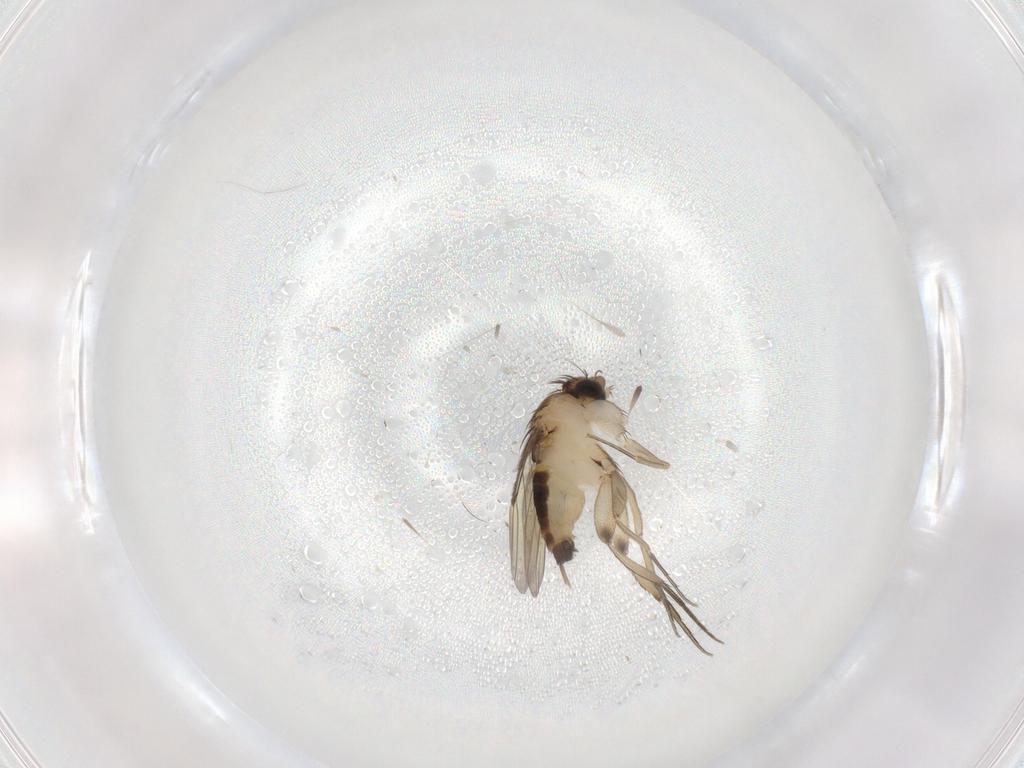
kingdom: Animalia
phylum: Arthropoda
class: Insecta
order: Diptera
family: Phoridae
